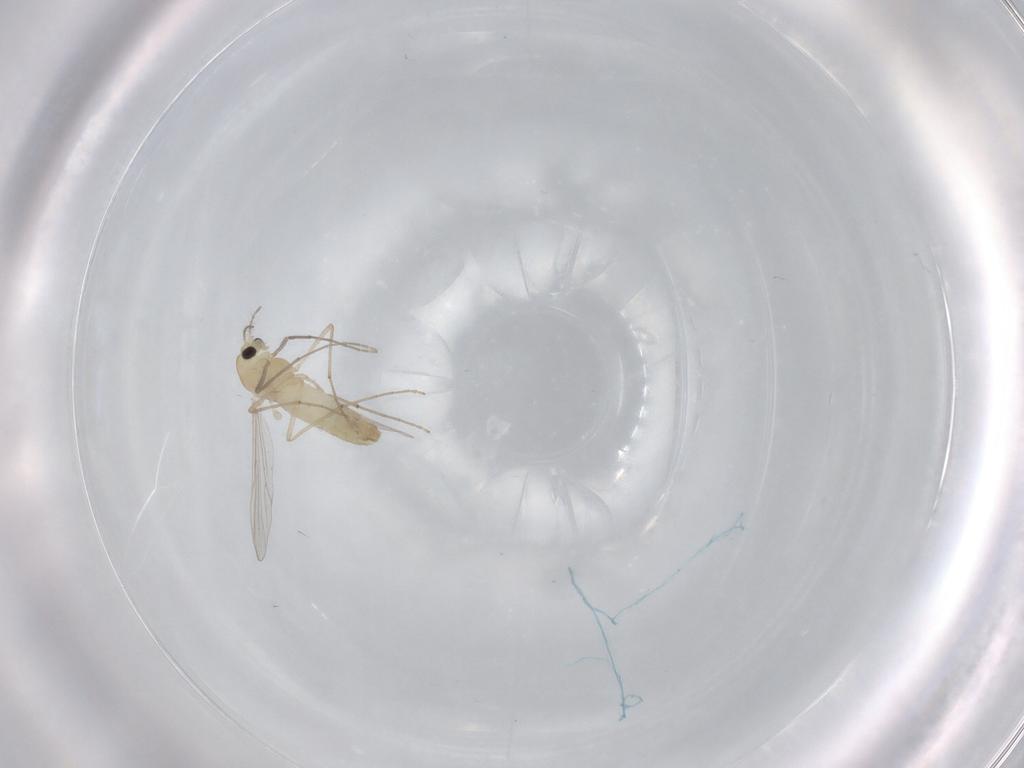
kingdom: Animalia
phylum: Arthropoda
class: Insecta
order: Diptera
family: Chironomidae
